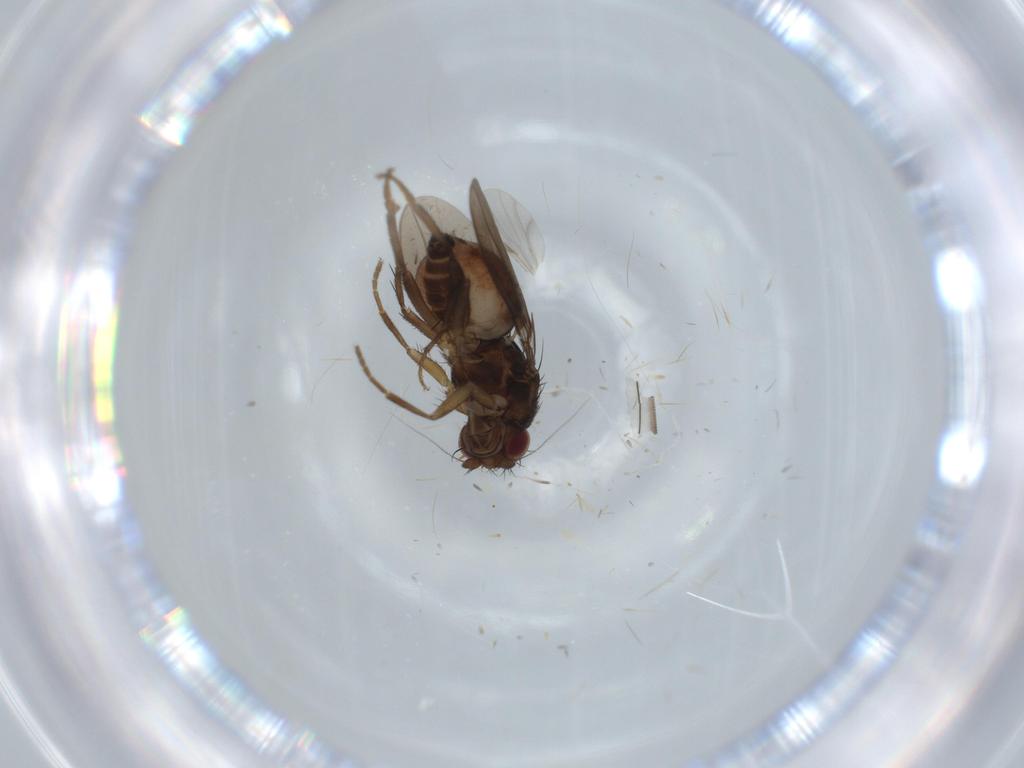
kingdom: Animalia
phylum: Arthropoda
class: Insecta
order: Diptera
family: Sphaeroceridae
